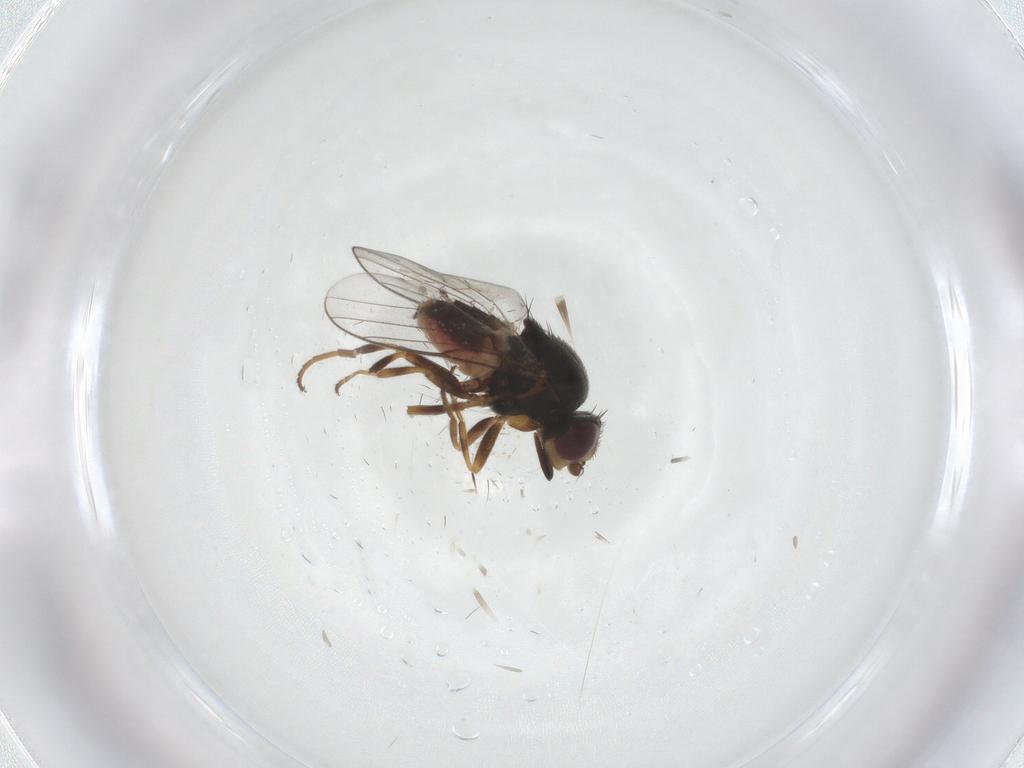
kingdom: Animalia
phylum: Arthropoda
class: Insecta
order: Diptera
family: Chloropidae
